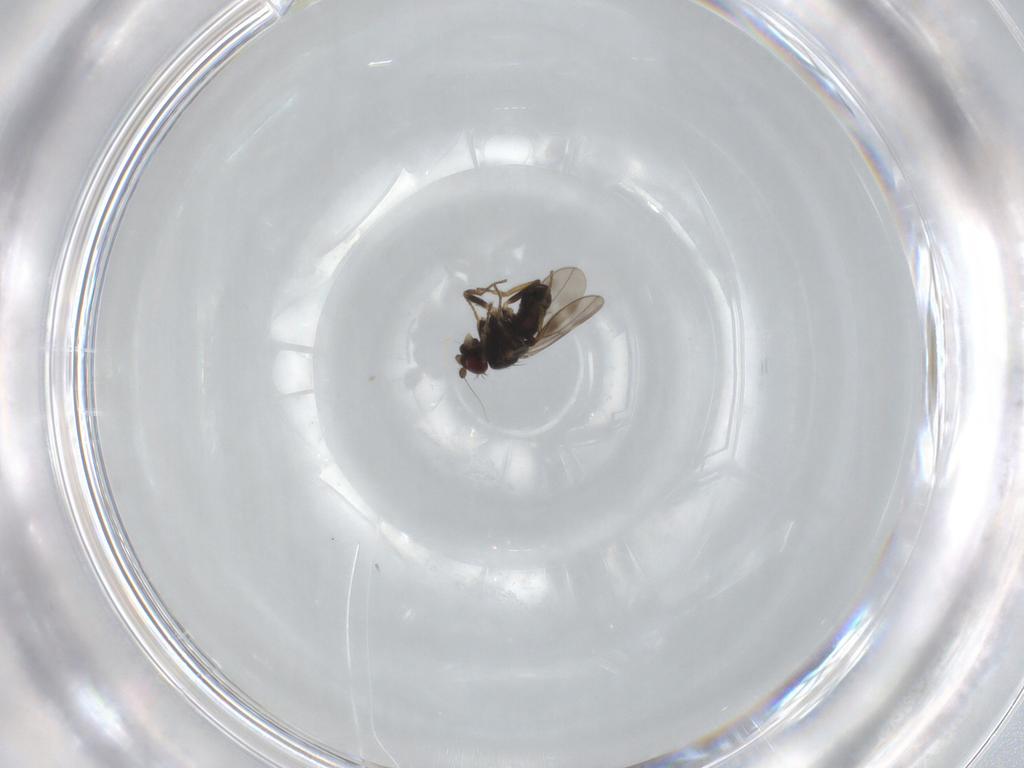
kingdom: Animalia
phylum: Arthropoda
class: Insecta
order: Diptera
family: Sphaeroceridae
